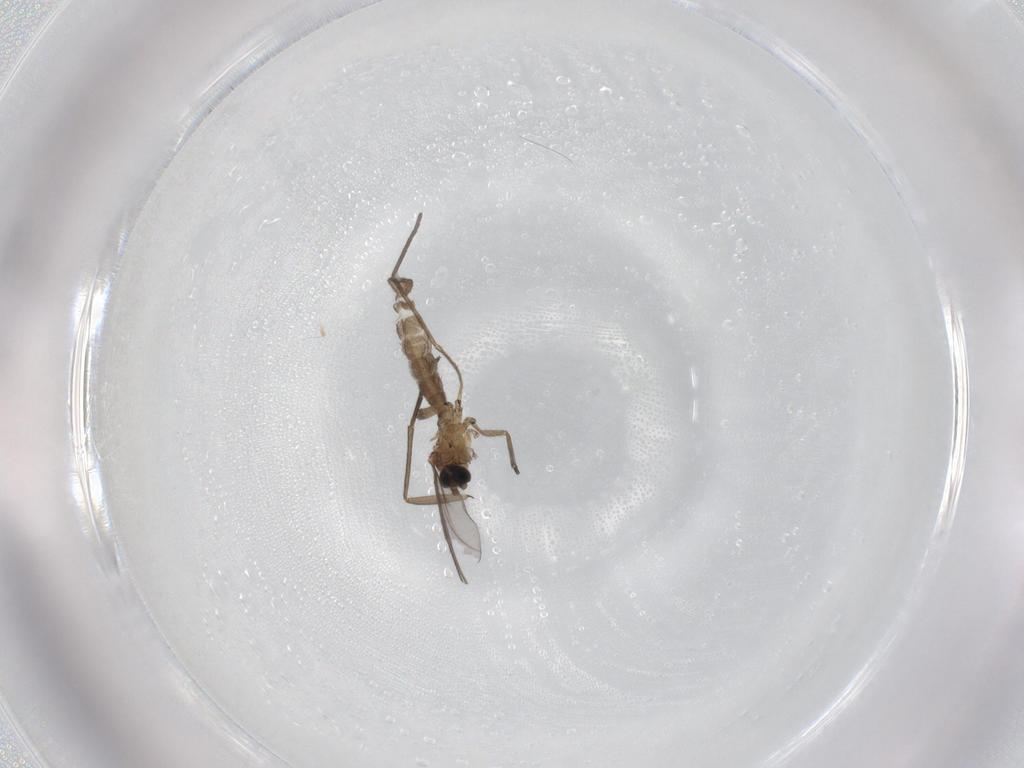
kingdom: Animalia
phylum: Arthropoda
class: Insecta
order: Diptera
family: Sciaridae
